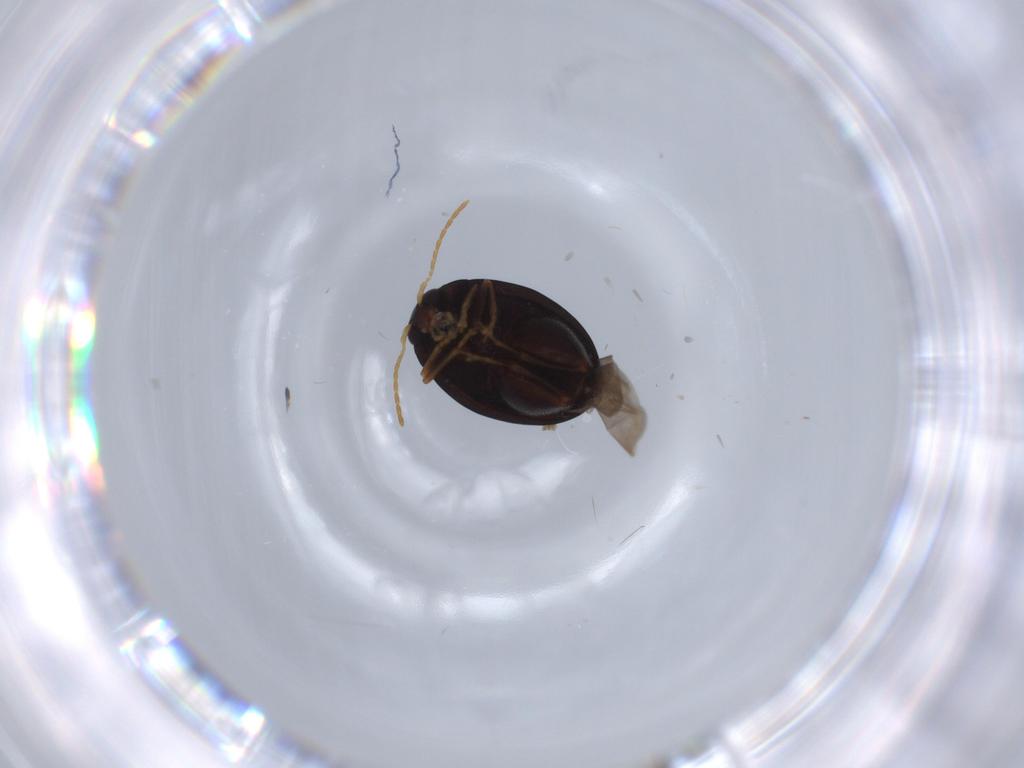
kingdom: Animalia
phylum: Arthropoda
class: Insecta
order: Coleoptera
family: Chrysomelidae
